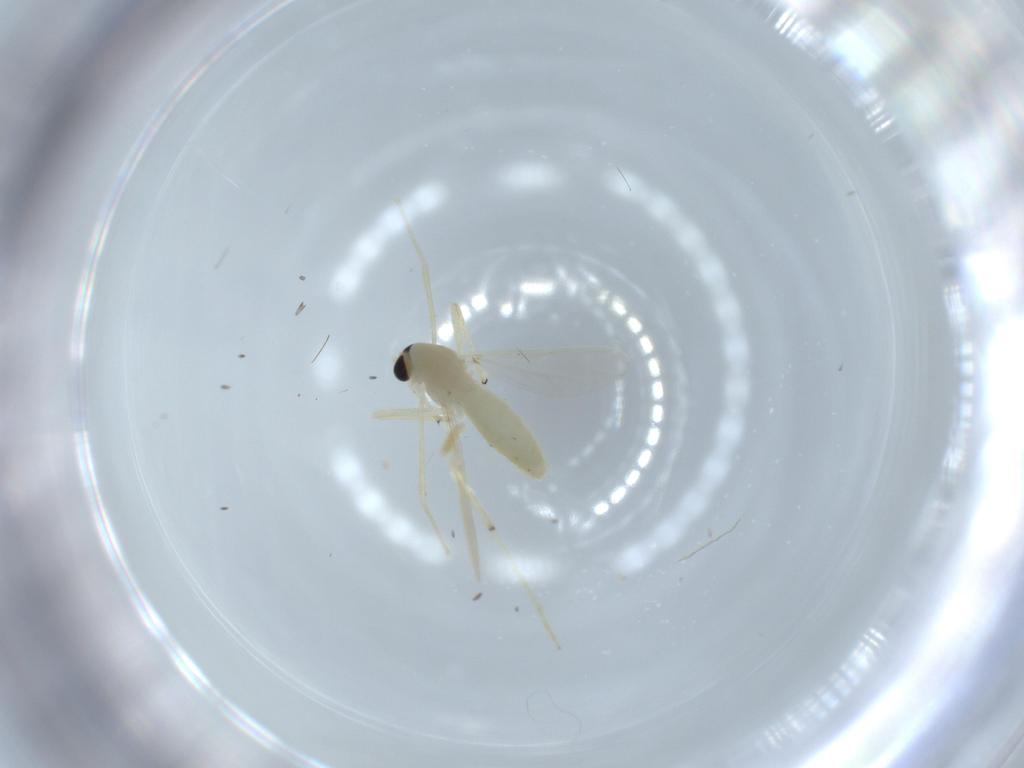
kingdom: Animalia
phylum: Arthropoda
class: Insecta
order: Diptera
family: Chironomidae
